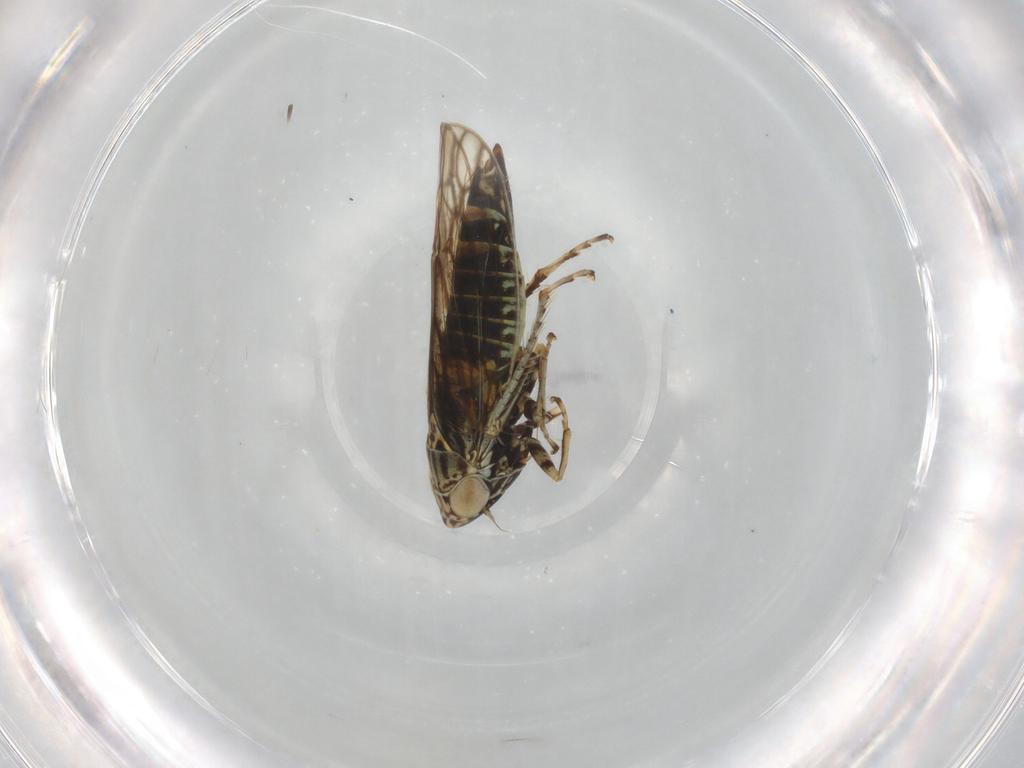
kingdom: Animalia
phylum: Arthropoda
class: Insecta
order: Hemiptera
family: Cicadellidae
